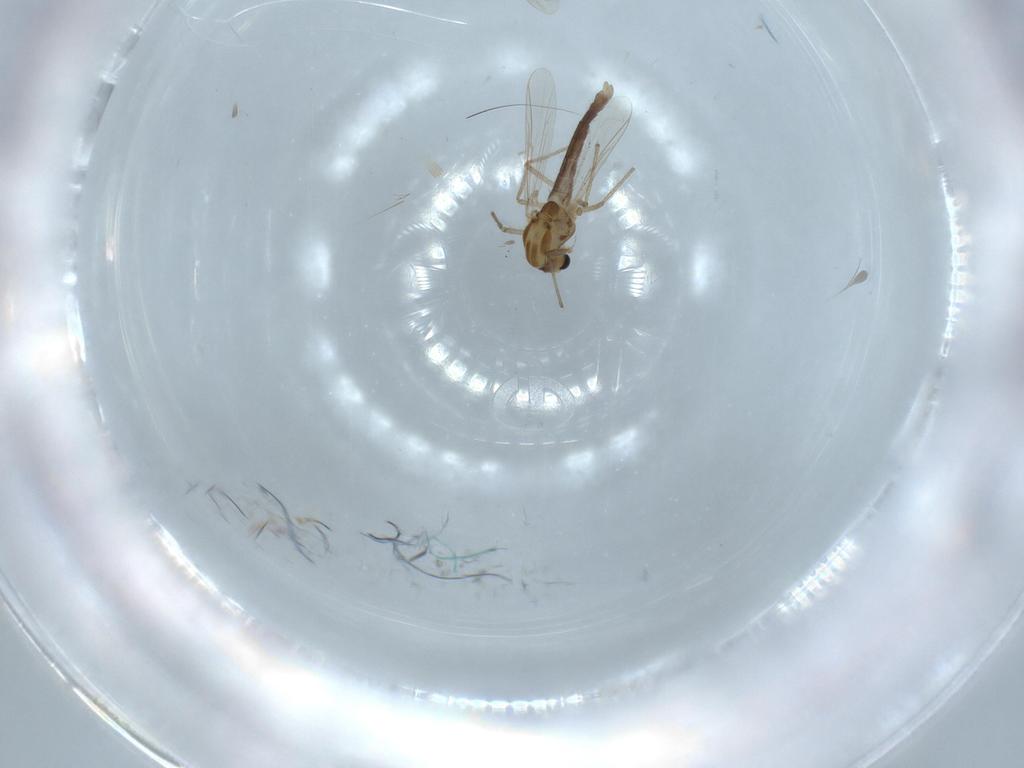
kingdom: Animalia
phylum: Arthropoda
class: Insecta
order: Diptera
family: Chironomidae
